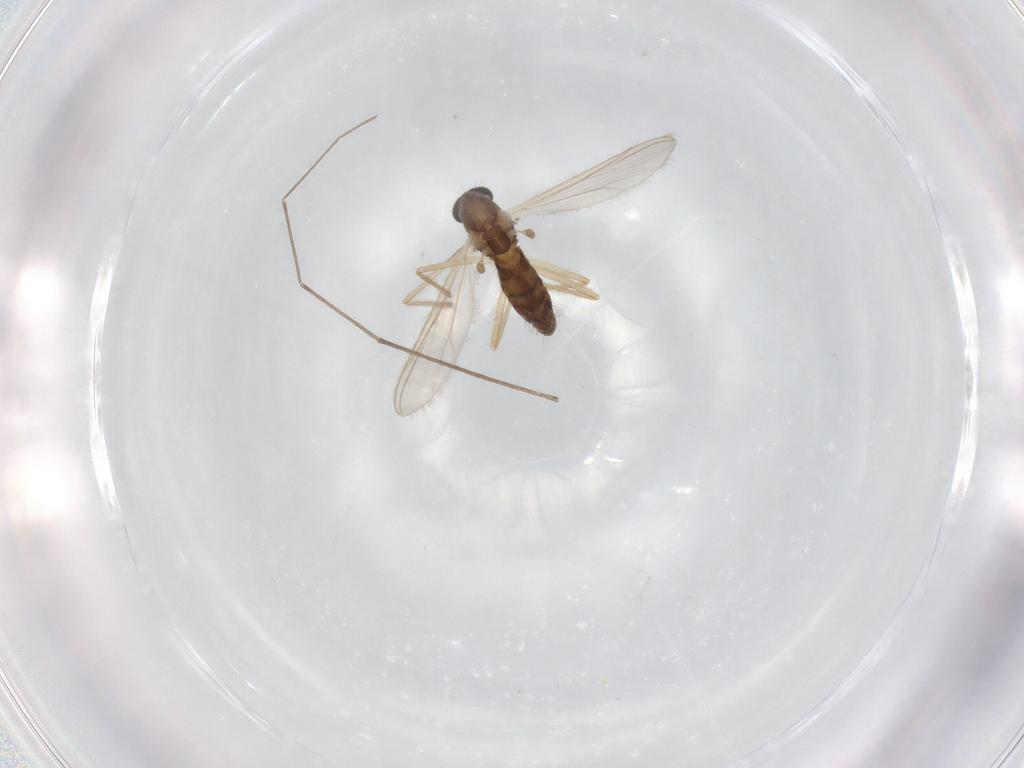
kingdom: Animalia
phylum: Arthropoda
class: Insecta
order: Diptera
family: Chironomidae
